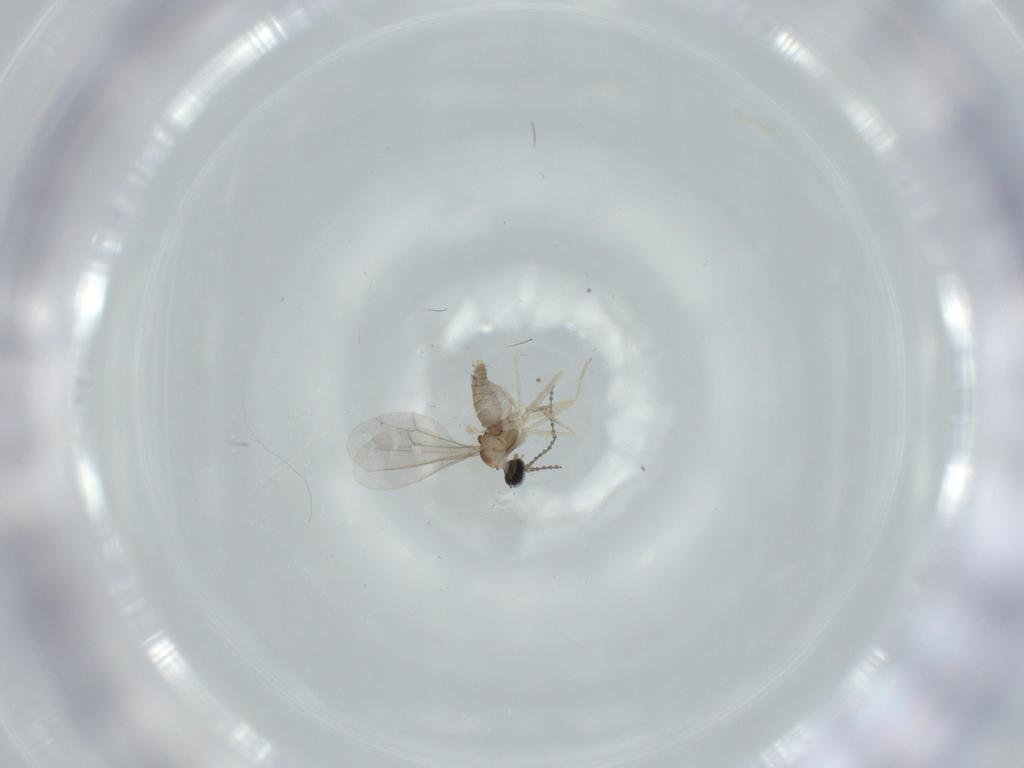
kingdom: Animalia
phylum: Arthropoda
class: Insecta
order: Diptera
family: Cecidomyiidae
